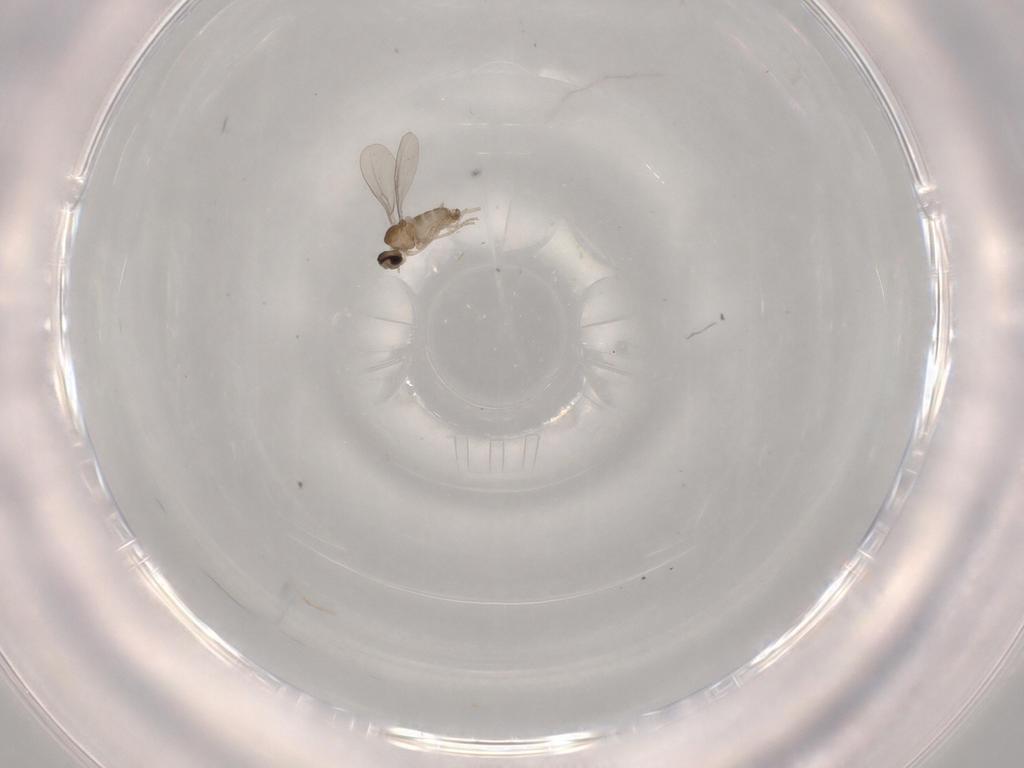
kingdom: Animalia
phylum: Arthropoda
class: Insecta
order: Diptera
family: Cecidomyiidae
